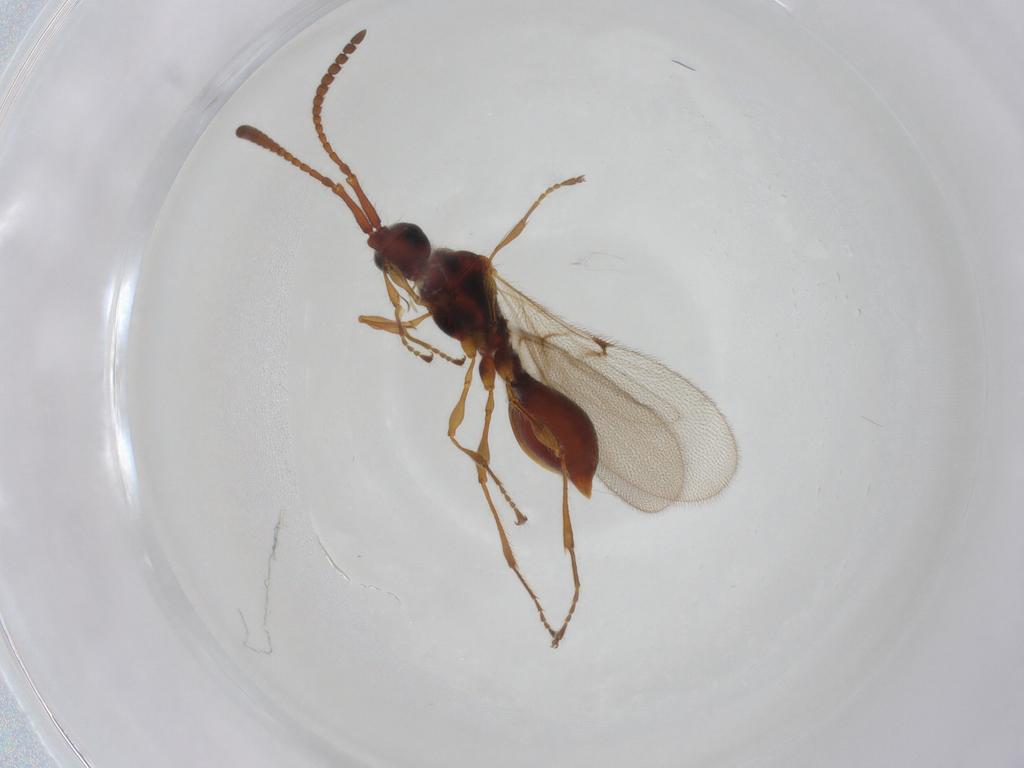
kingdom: Animalia
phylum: Arthropoda
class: Insecta
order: Hymenoptera
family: Diapriidae
